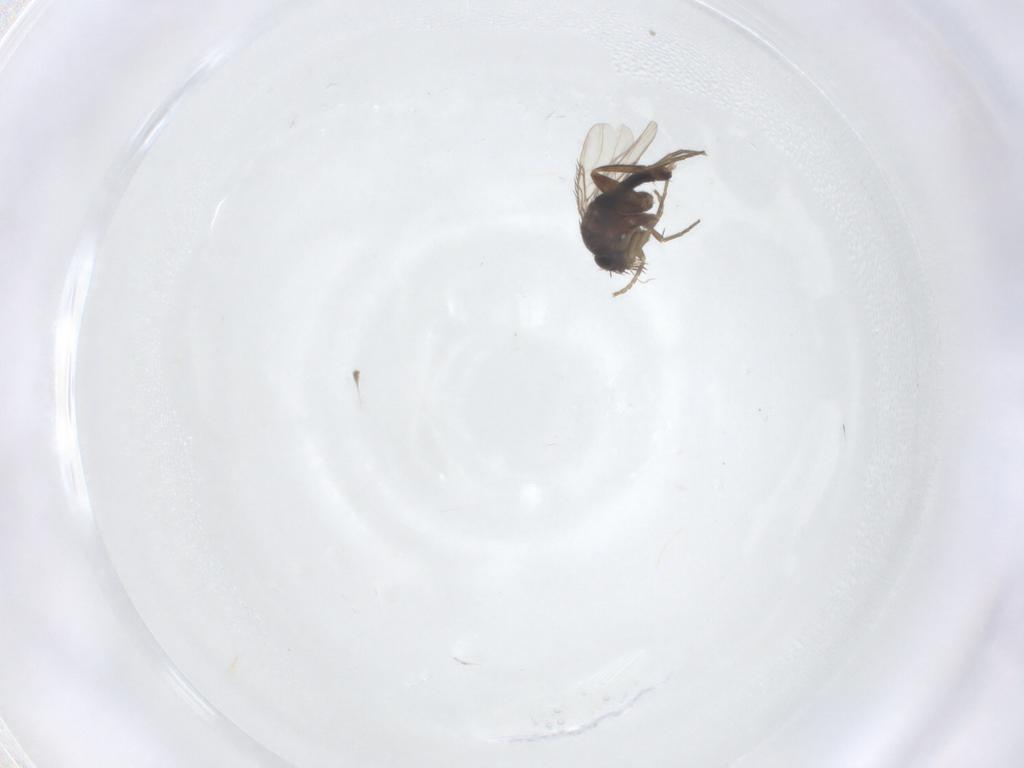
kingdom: Animalia
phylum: Arthropoda
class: Insecta
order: Diptera
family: Phoridae
